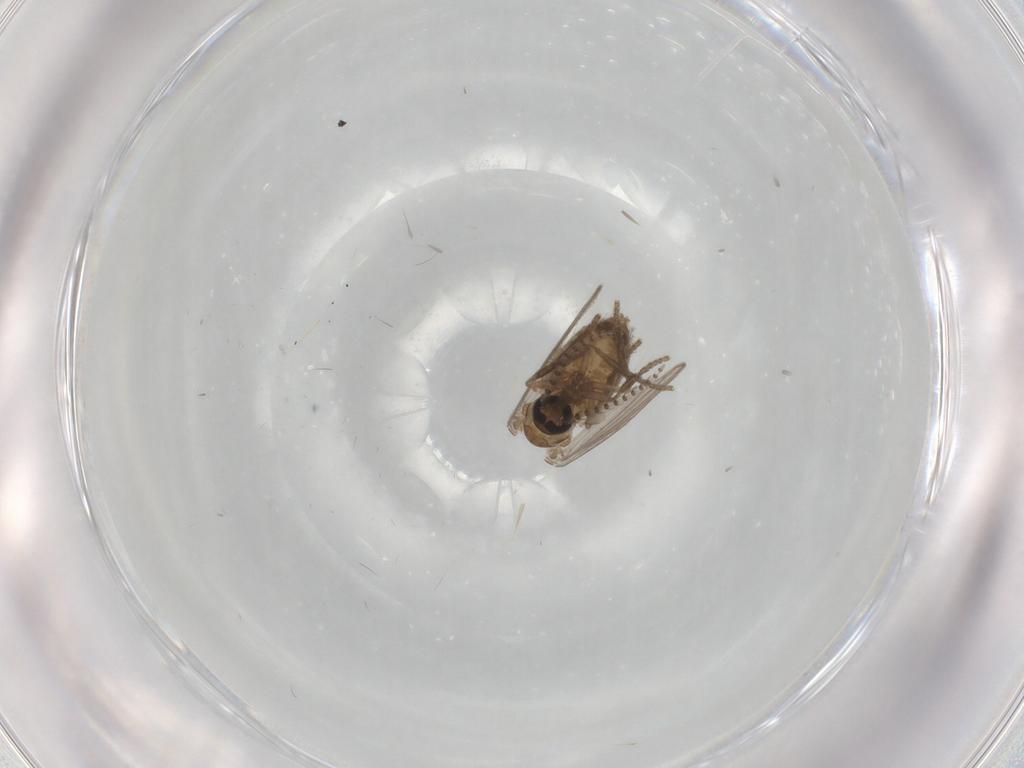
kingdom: Animalia
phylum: Arthropoda
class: Insecta
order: Diptera
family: Psychodidae
